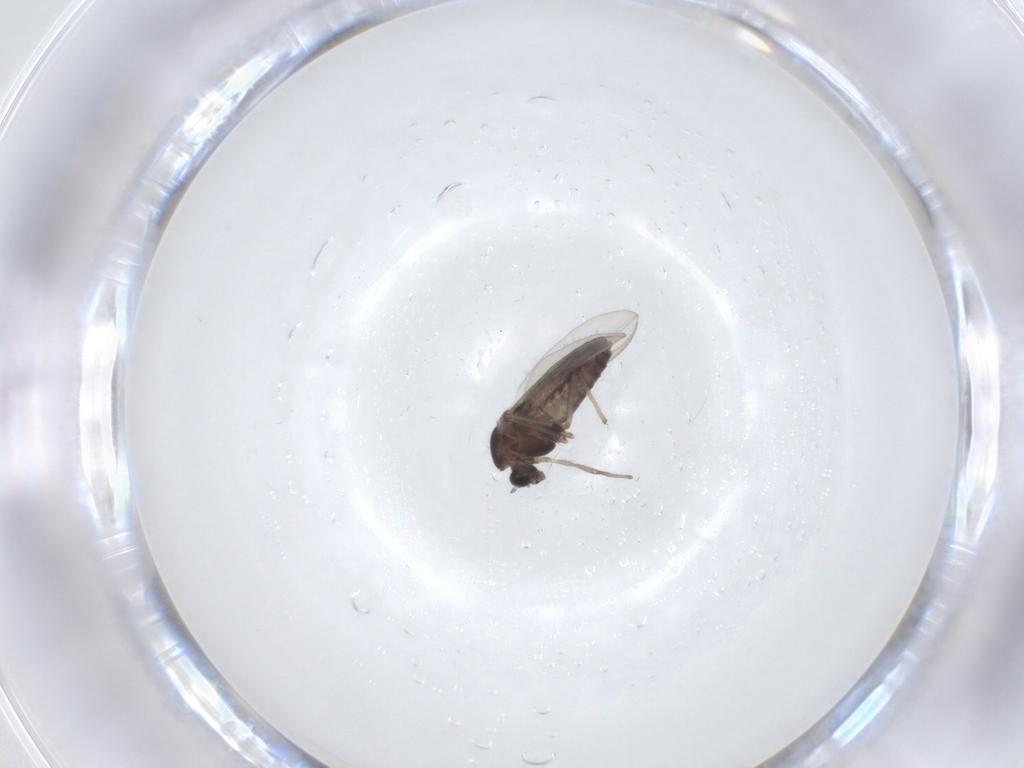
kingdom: Animalia
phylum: Arthropoda
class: Insecta
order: Diptera
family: Chironomidae
